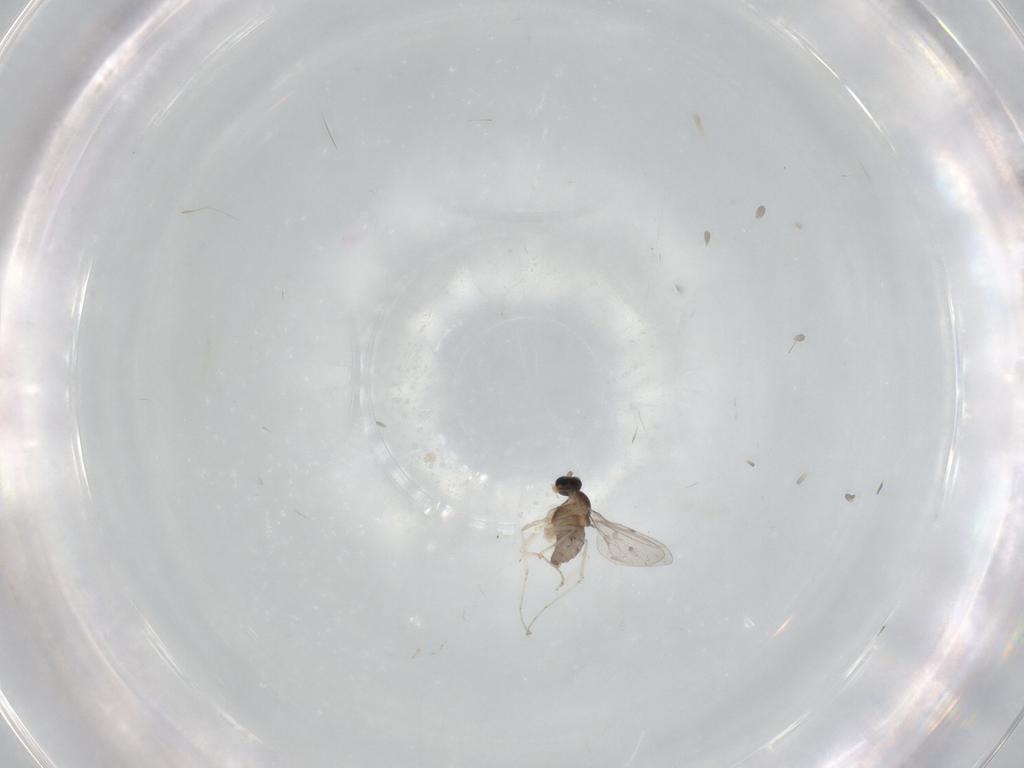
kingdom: Animalia
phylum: Arthropoda
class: Insecta
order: Diptera
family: Cecidomyiidae
